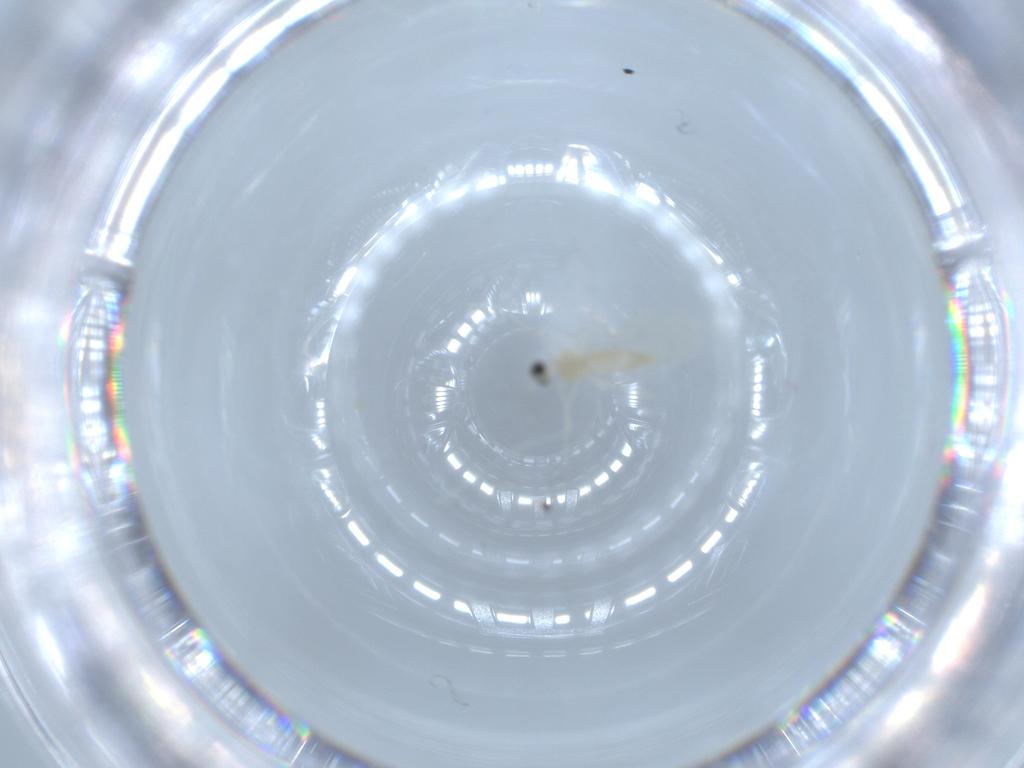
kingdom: Animalia
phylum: Arthropoda
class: Insecta
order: Diptera
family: Cecidomyiidae
